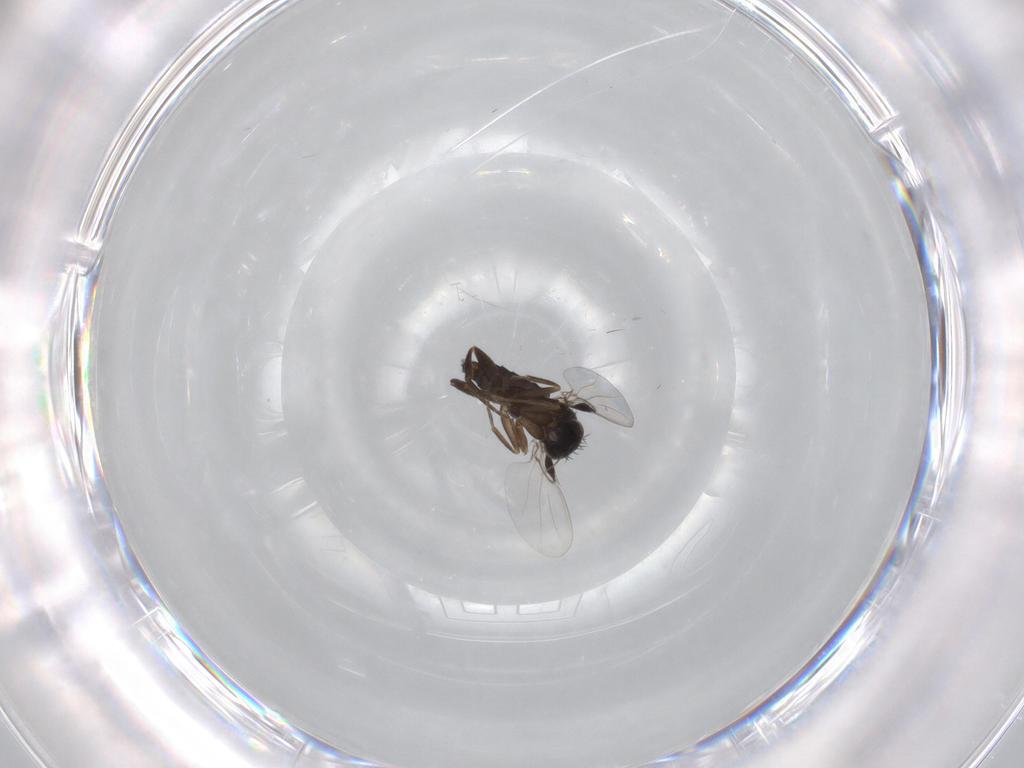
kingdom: Animalia
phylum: Arthropoda
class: Insecta
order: Diptera
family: Phoridae
